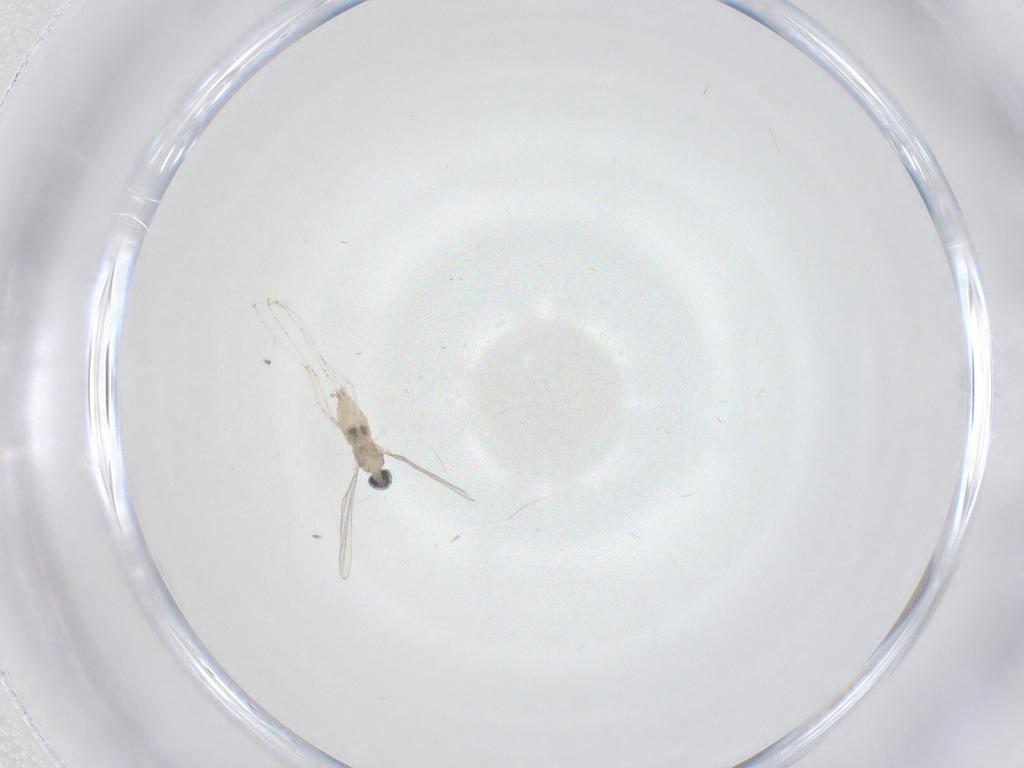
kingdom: Animalia
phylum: Arthropoda
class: Insecta
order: Diptera
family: Cecidomyiidae
